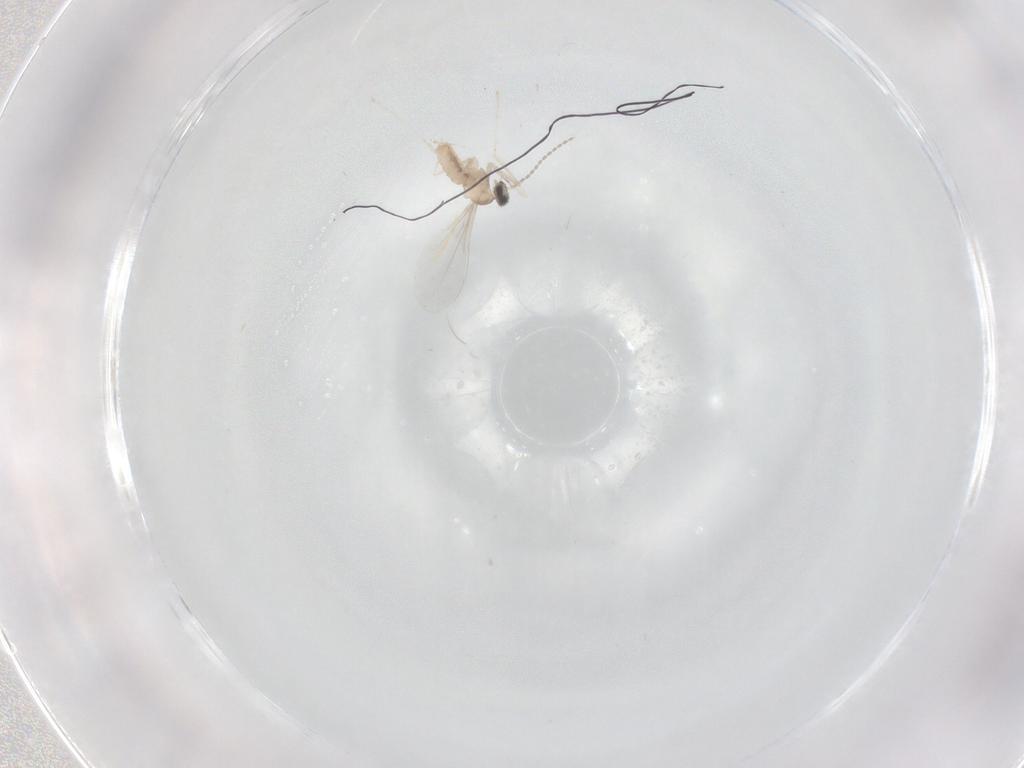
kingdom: Animalia
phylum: Arthropoda
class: Insecta
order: Diptera
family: Cecidomyiidae
